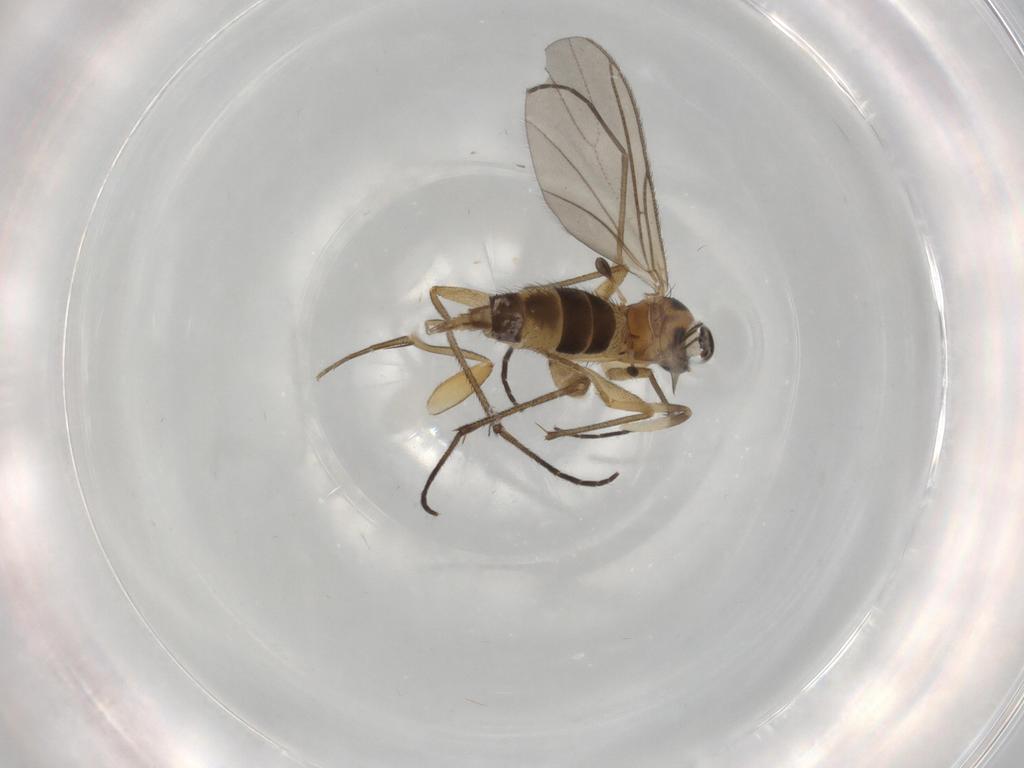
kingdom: Animalia
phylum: Arthropoda
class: Insecta
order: Diptera
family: Phoridae
